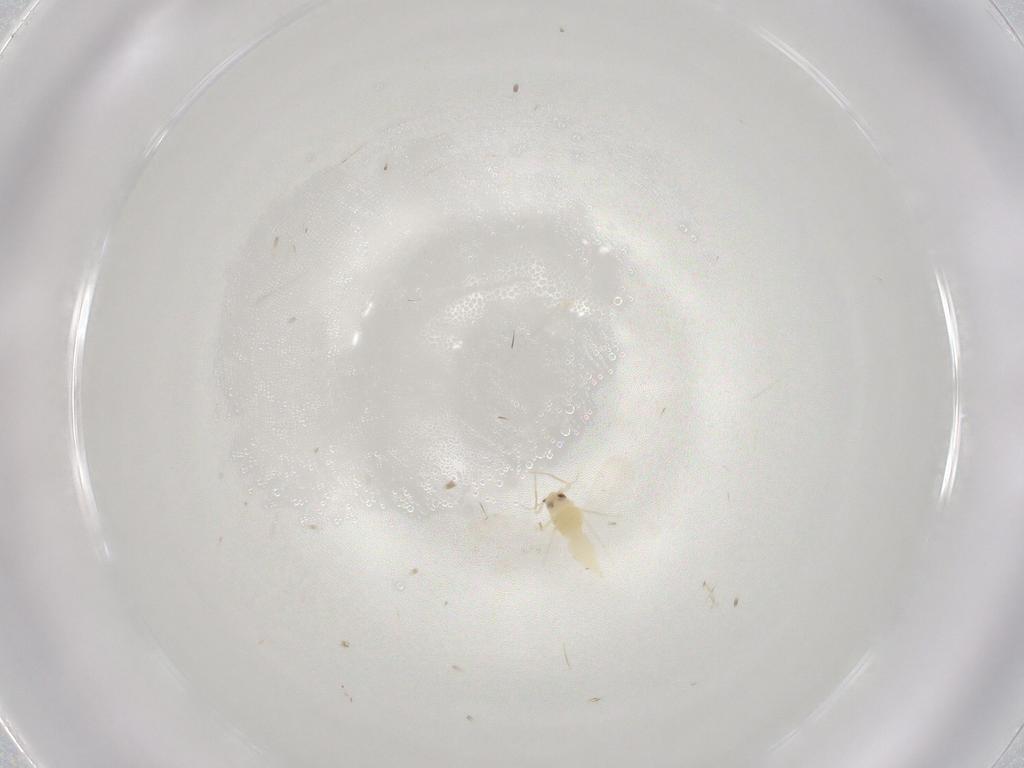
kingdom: Animalia
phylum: Arthropoda
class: Insecta
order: Hemiptera
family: Aleyrodidae
